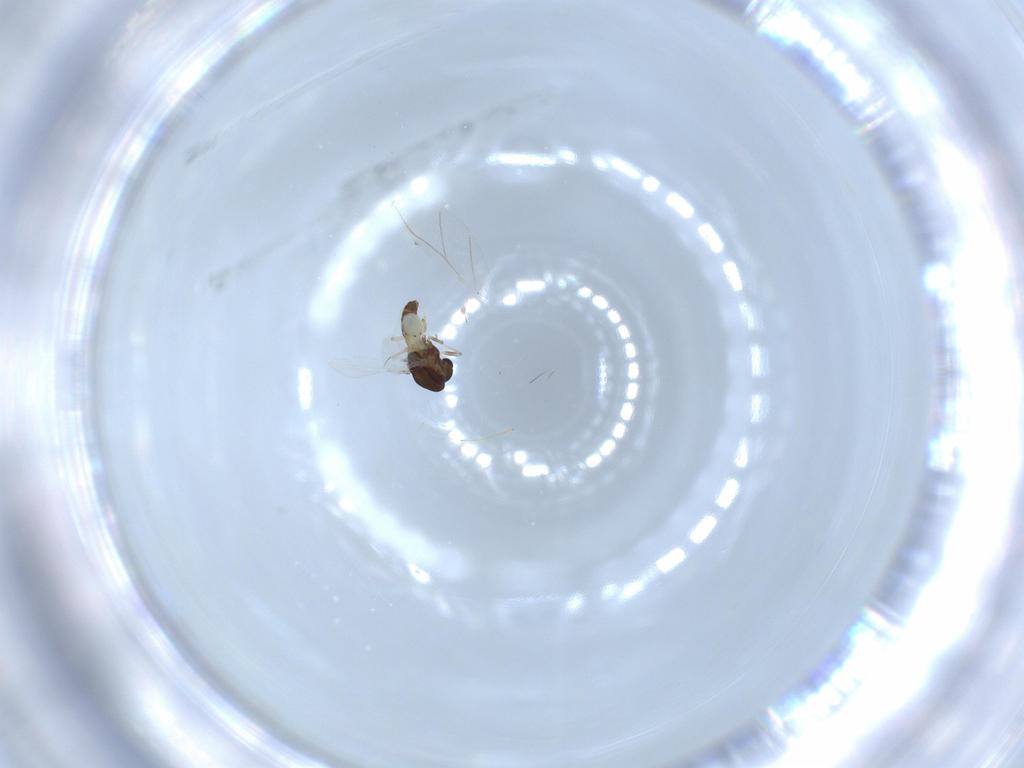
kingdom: Animalia
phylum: Arthropoda
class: Insecta
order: Diptera
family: Chironomidae
